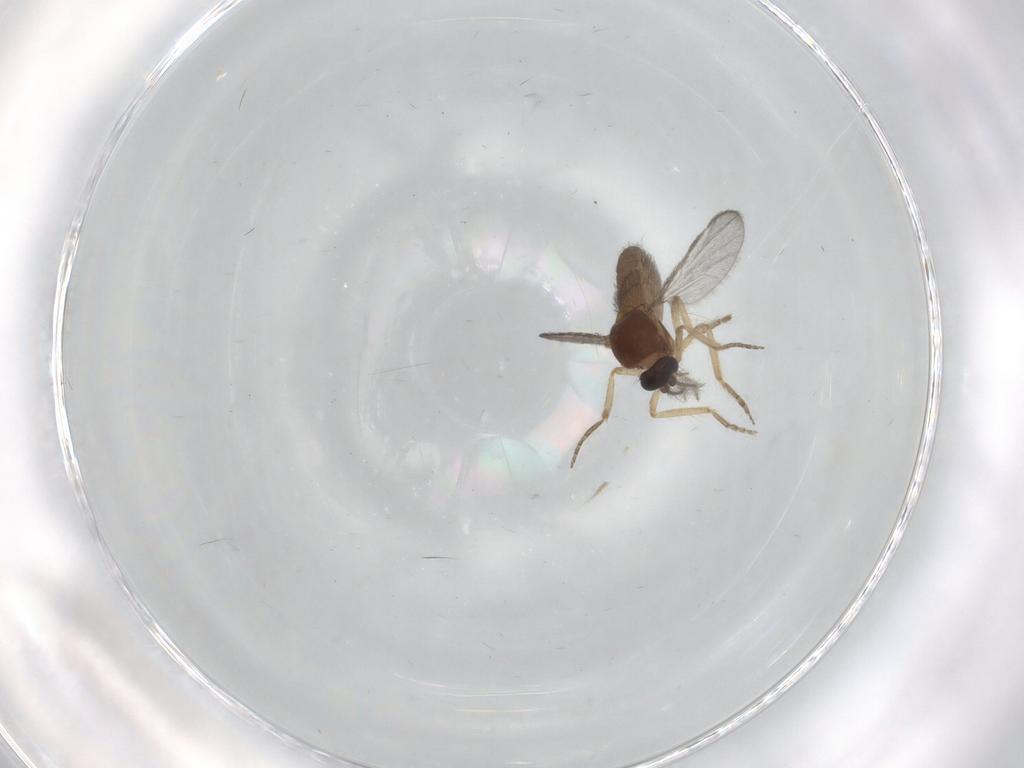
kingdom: Animalia
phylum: Arthropoda
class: Insecta
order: Diptera
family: Ceratopogonidae
